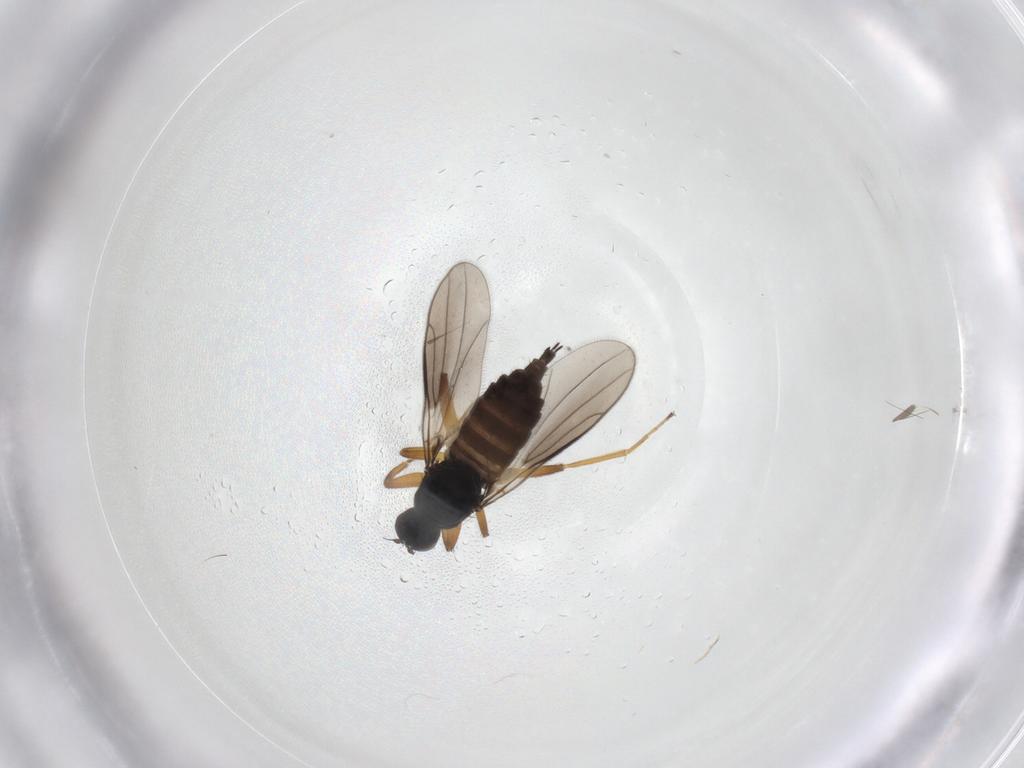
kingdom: Animalia
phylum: Arthropoda
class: Insecta
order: Diptera
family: Hybotidae
